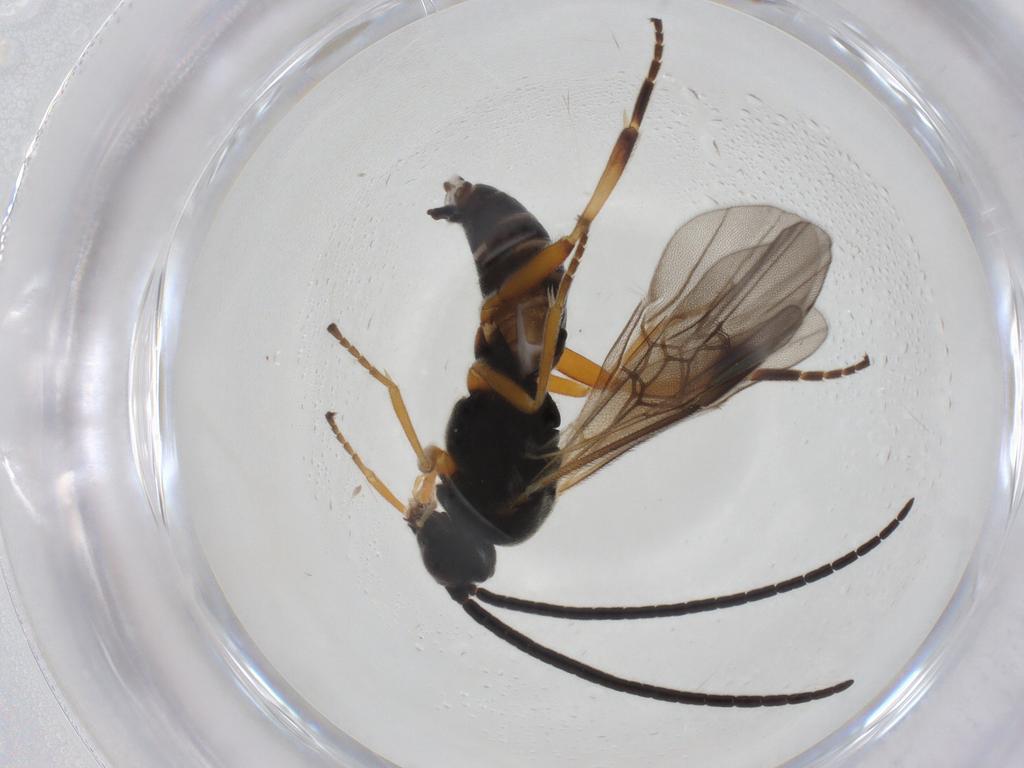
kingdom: Animalia
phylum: Arthropoda
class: Insecta
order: Hymenoptera
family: Braconidae
